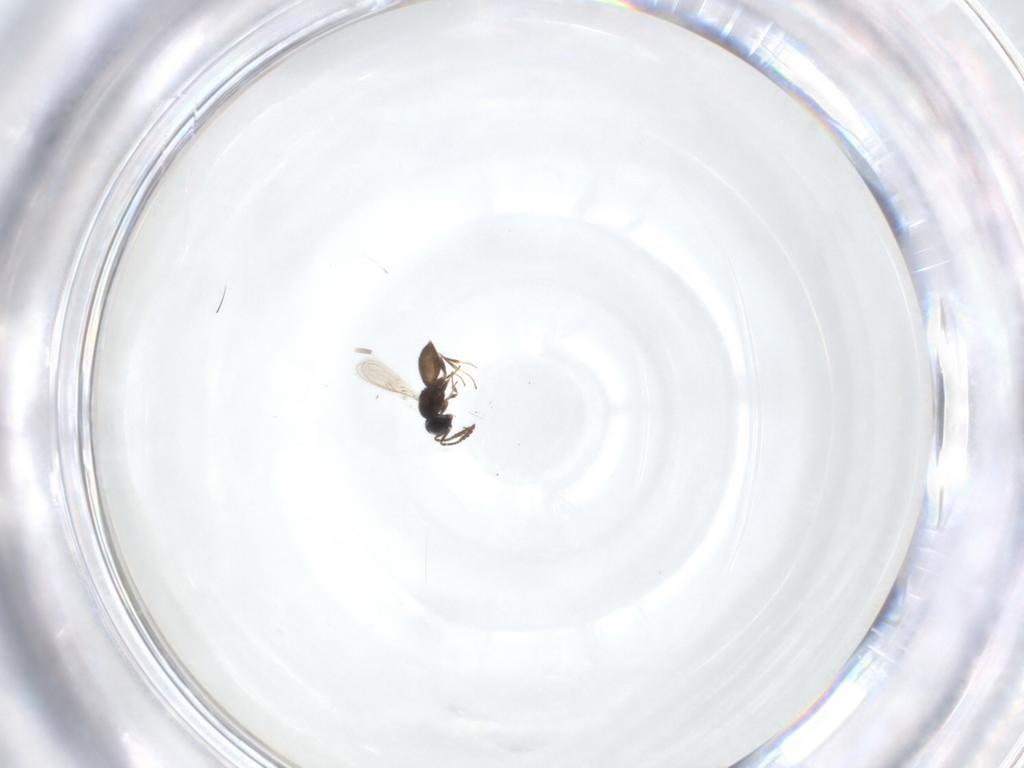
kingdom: Animalia
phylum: Arthropoda
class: Insecta
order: Hymenoptera
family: Scelionidae
